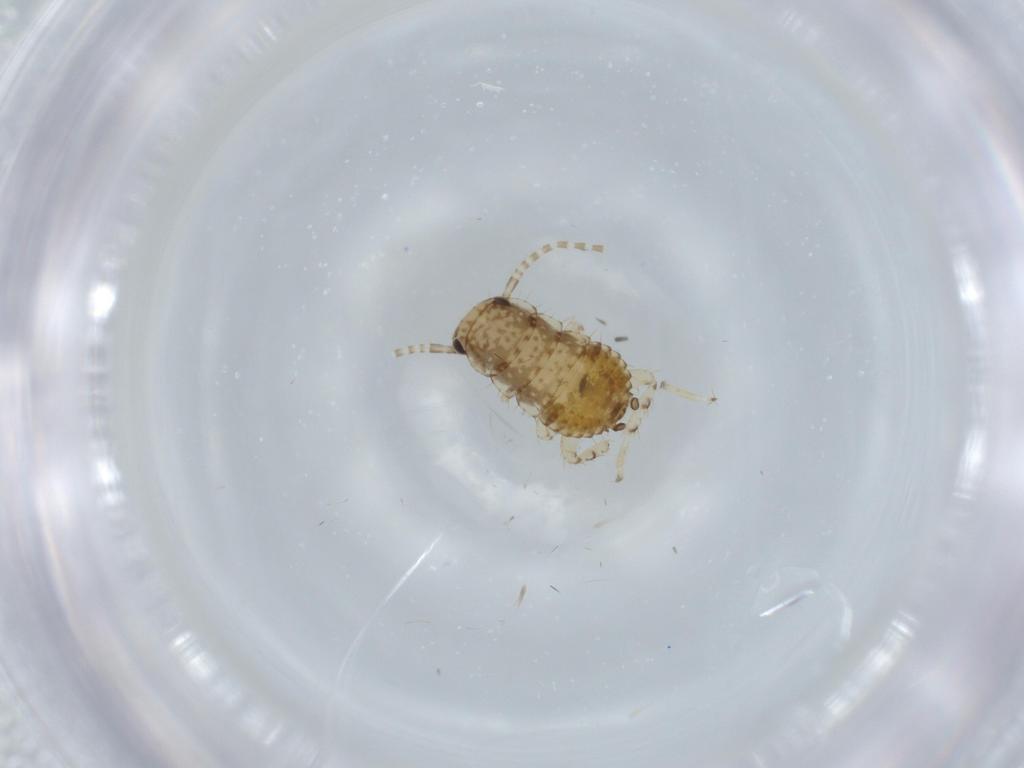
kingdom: Animalia
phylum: Arthropoda
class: Insecta
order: Blattodea
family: Ectobiidae
